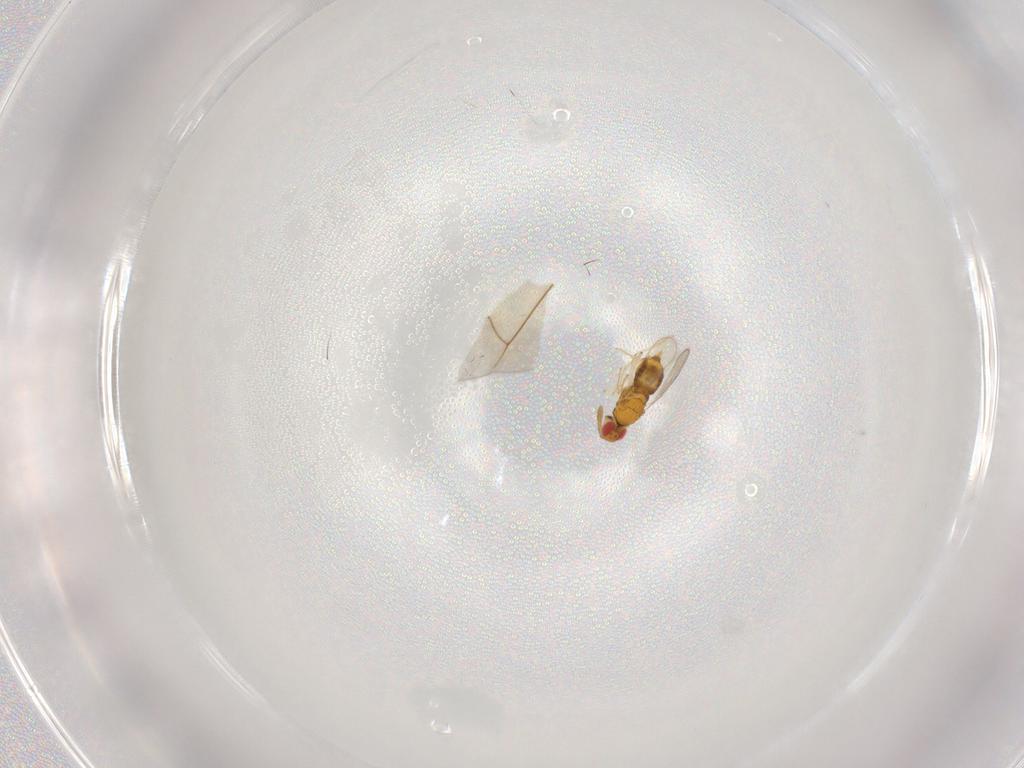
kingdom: Animalia
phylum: Arthropoda
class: Insecta
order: Hymenoptera
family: Aphelinidae
